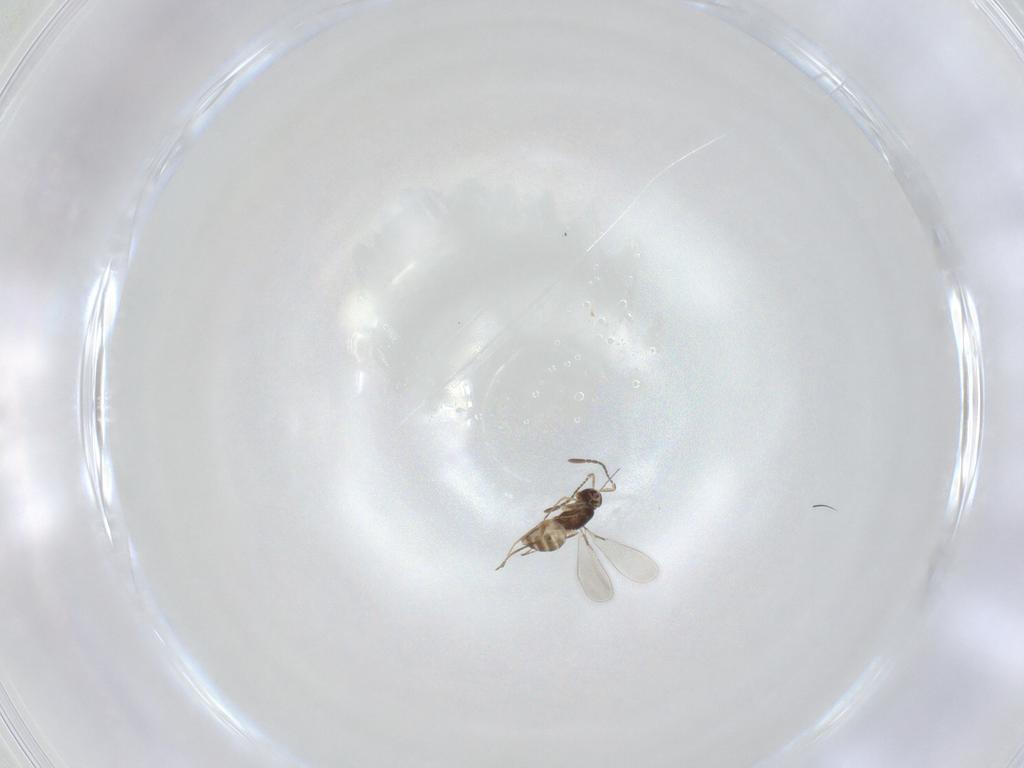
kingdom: Animalia
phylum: Arthropoda
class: Insecta
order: Hymenoptera
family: Mymaridae
